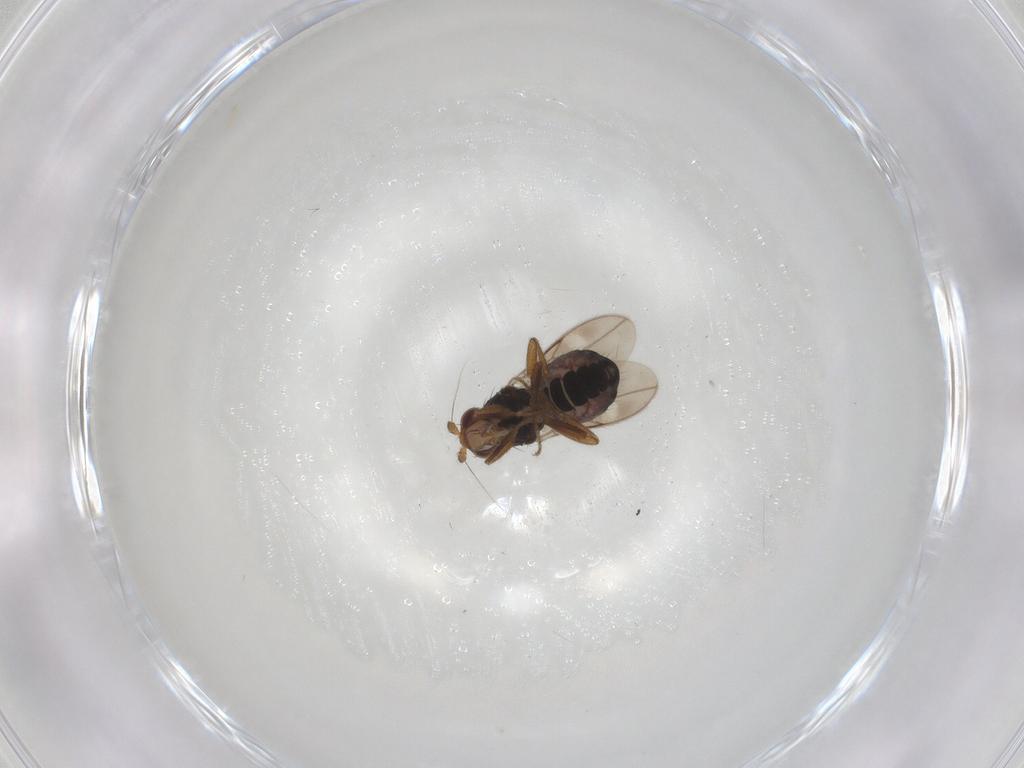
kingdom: Animalia
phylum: Arthropoda
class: Insecta
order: Diptera
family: Sphaeroceridae
